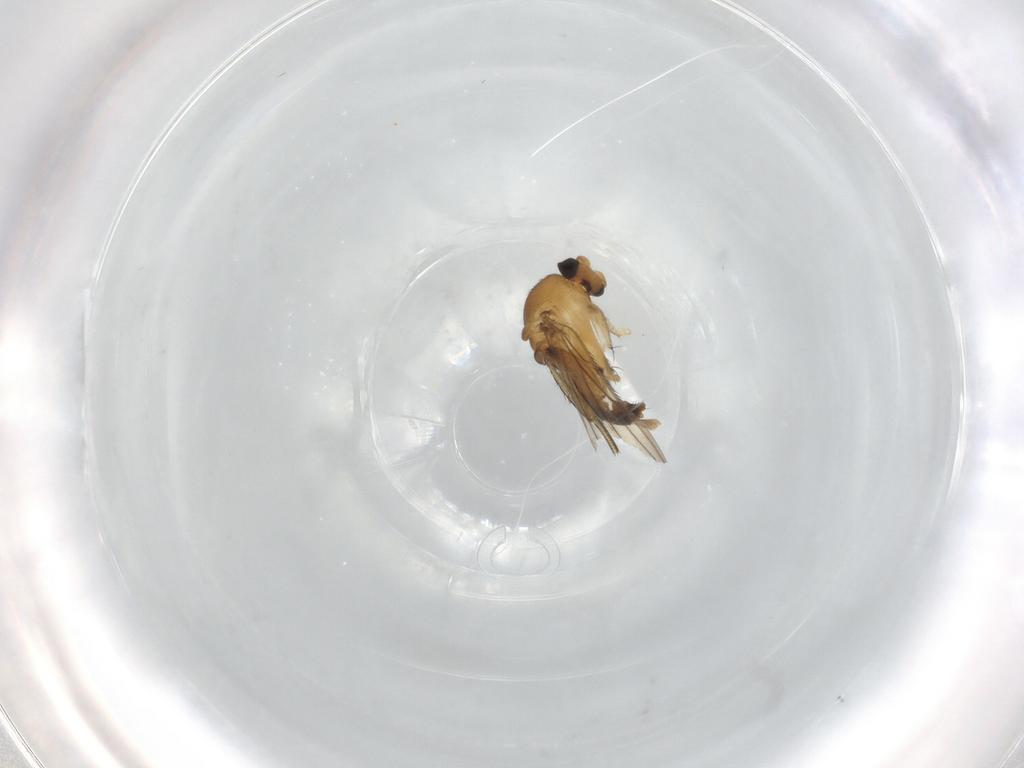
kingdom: Animalia
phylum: Arthropoda
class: Insecta
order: Diptera
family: Phoridae
